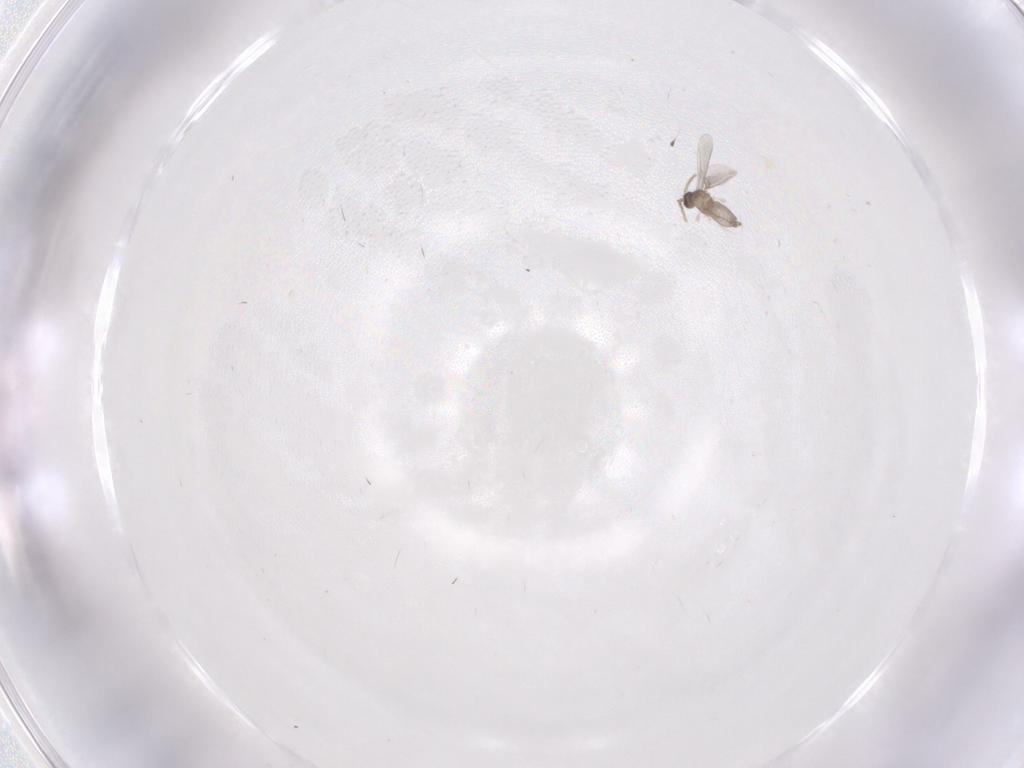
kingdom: Animalia
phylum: Arthropoda
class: Insecta
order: Diptera
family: Cecidomyiidae
